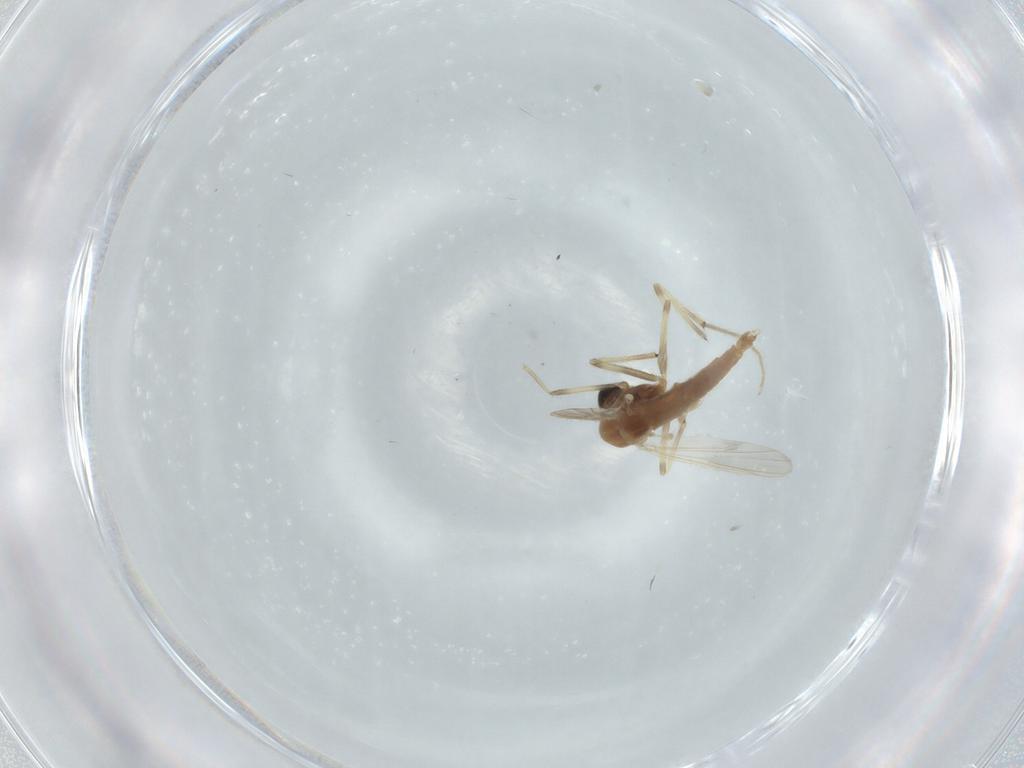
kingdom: Animalia
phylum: Arthropoda
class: Insecta
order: Diptera
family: Chironomidae
